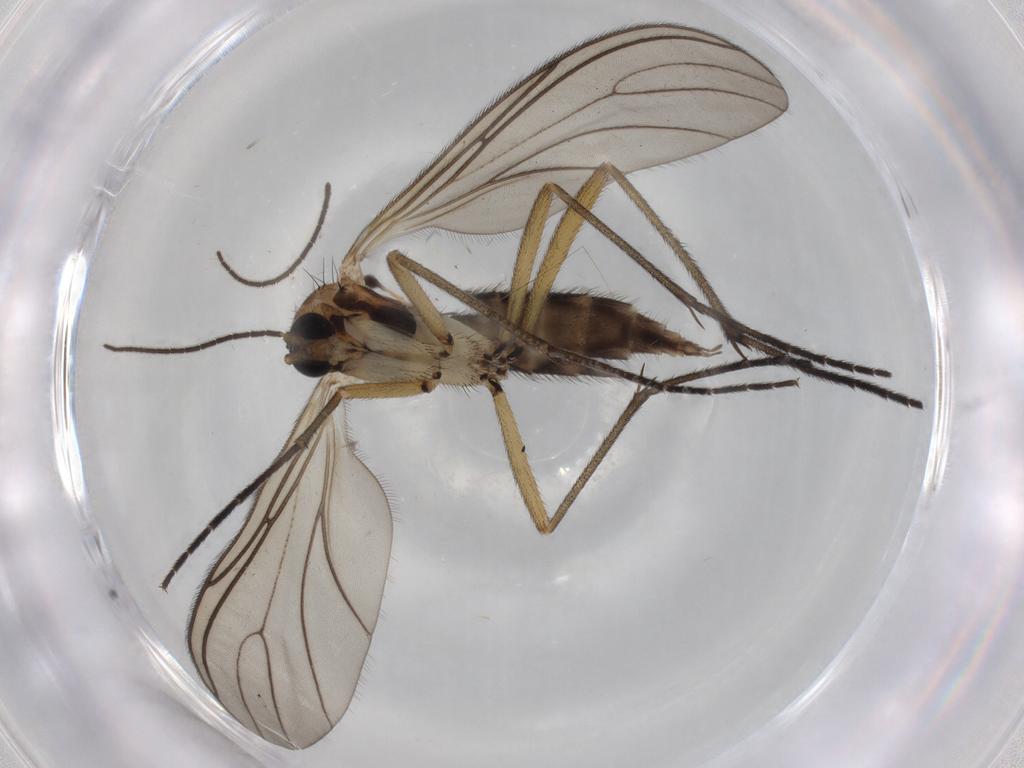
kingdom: Animalia
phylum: Arthropoda
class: Insecta
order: Diptera
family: Sciaridae
